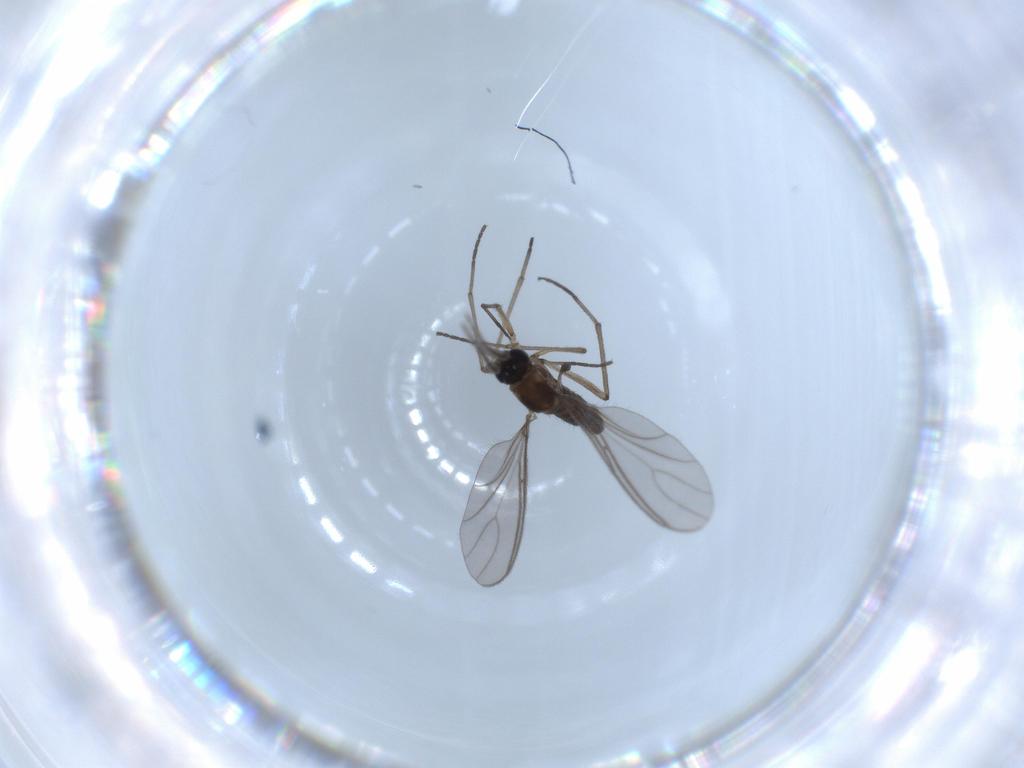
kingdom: Animalia
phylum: Arthropoda
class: Insecta
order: Diptera
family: Sciaridae
